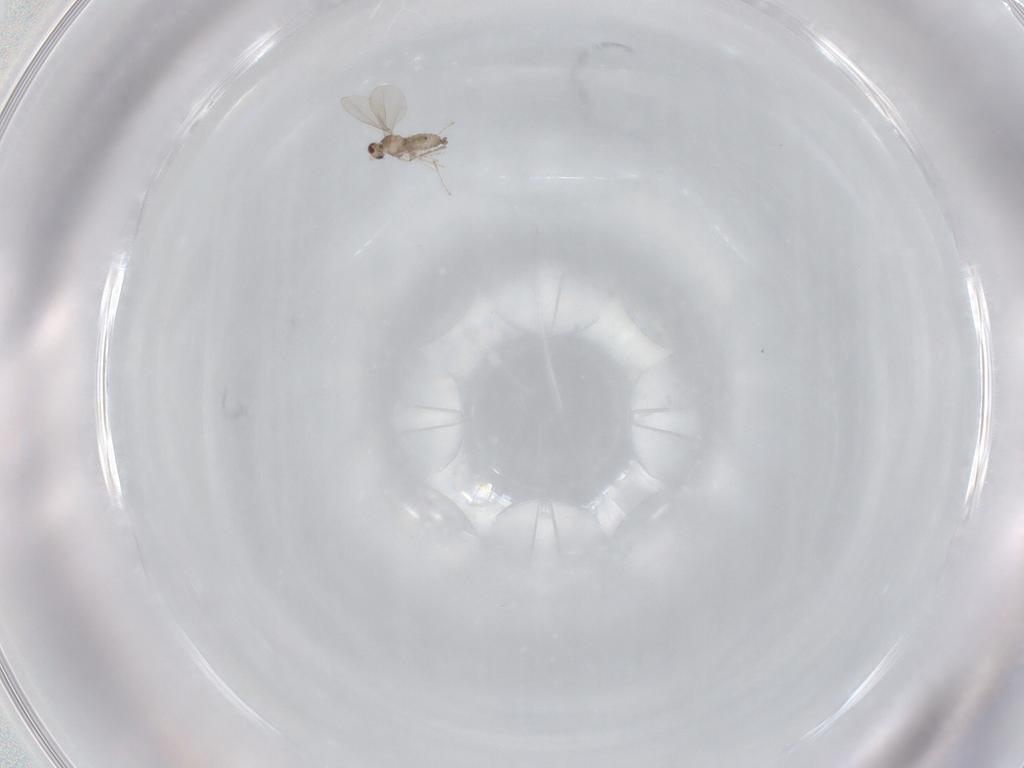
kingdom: Animalia
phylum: Arthropoda
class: Insecta
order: Diptera
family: Cecidomyiidae
